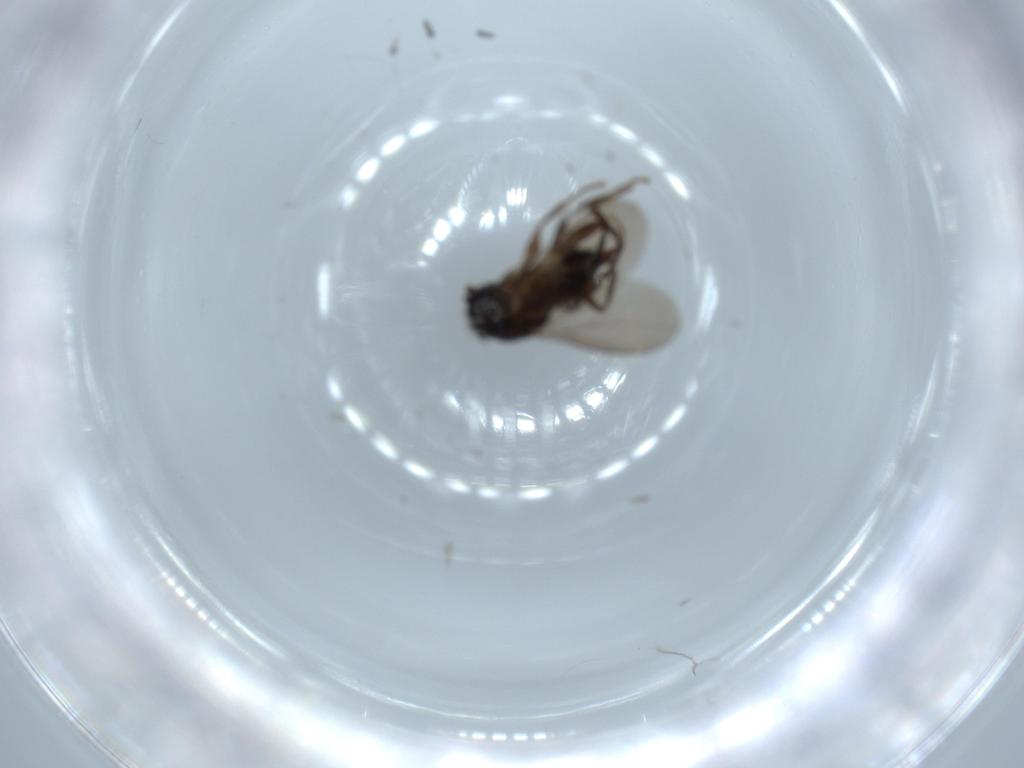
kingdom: Animalia
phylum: Arthropoda
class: Insecta
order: Diptera
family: Sphaeroceridae
